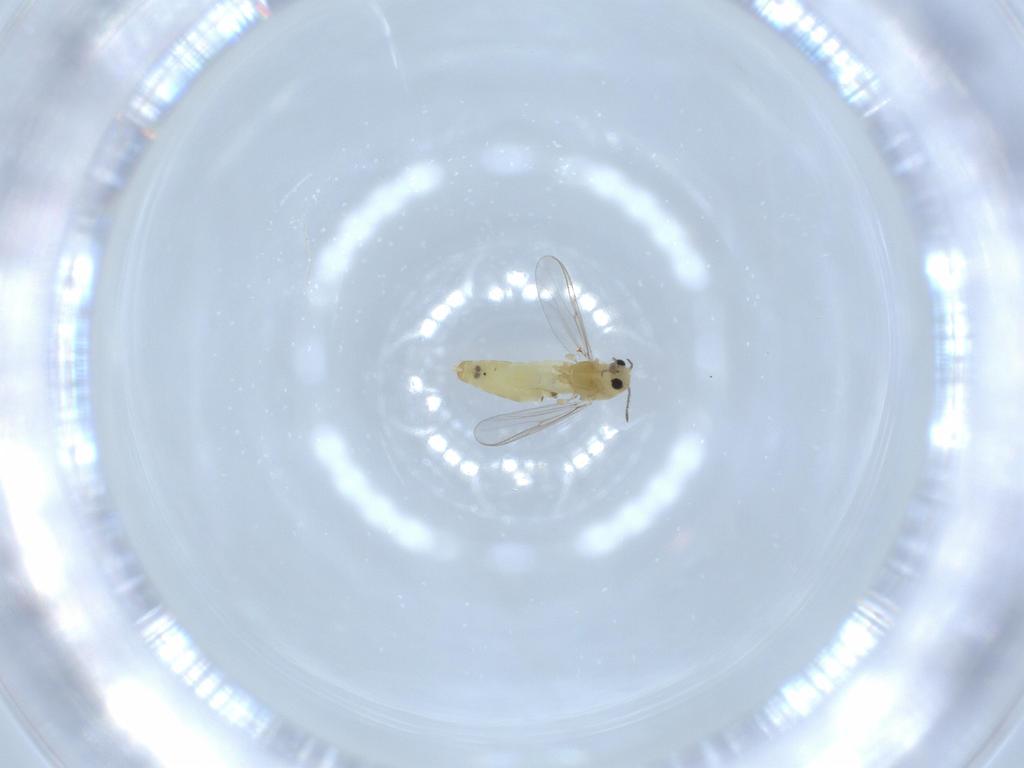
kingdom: Animalia
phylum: Arthropoda
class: Insecta
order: Diptera
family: Chironomidae
